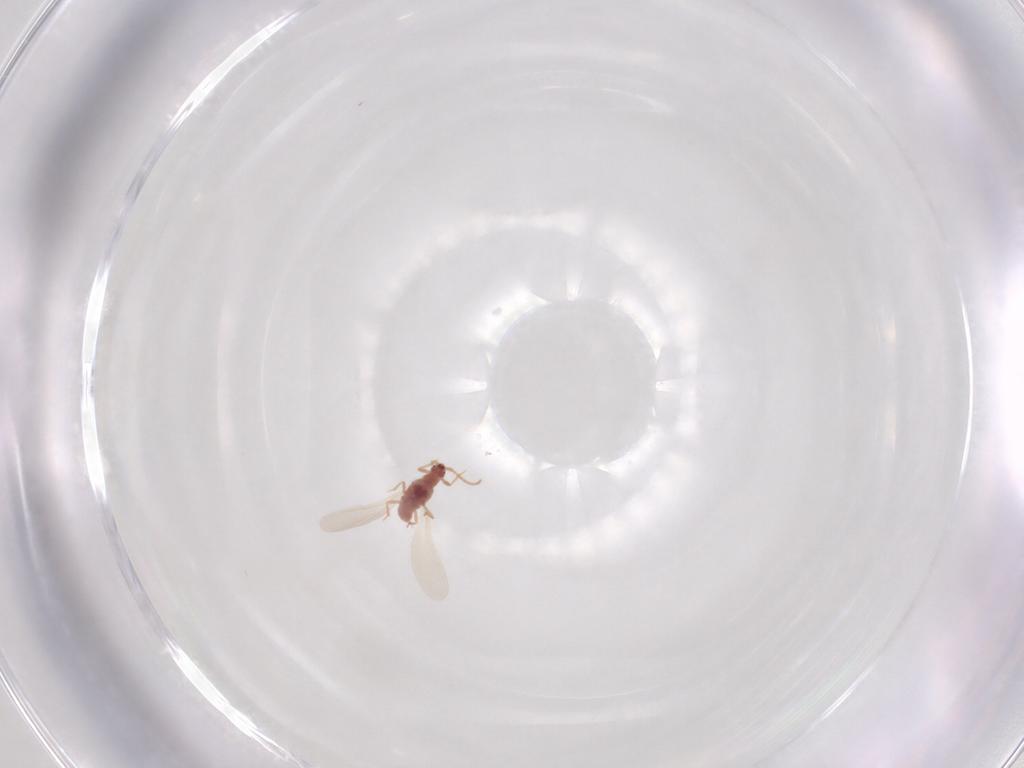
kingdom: Animalia
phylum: Arthropoda
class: Insecta
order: Hemiptera
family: Pseudococcidae
